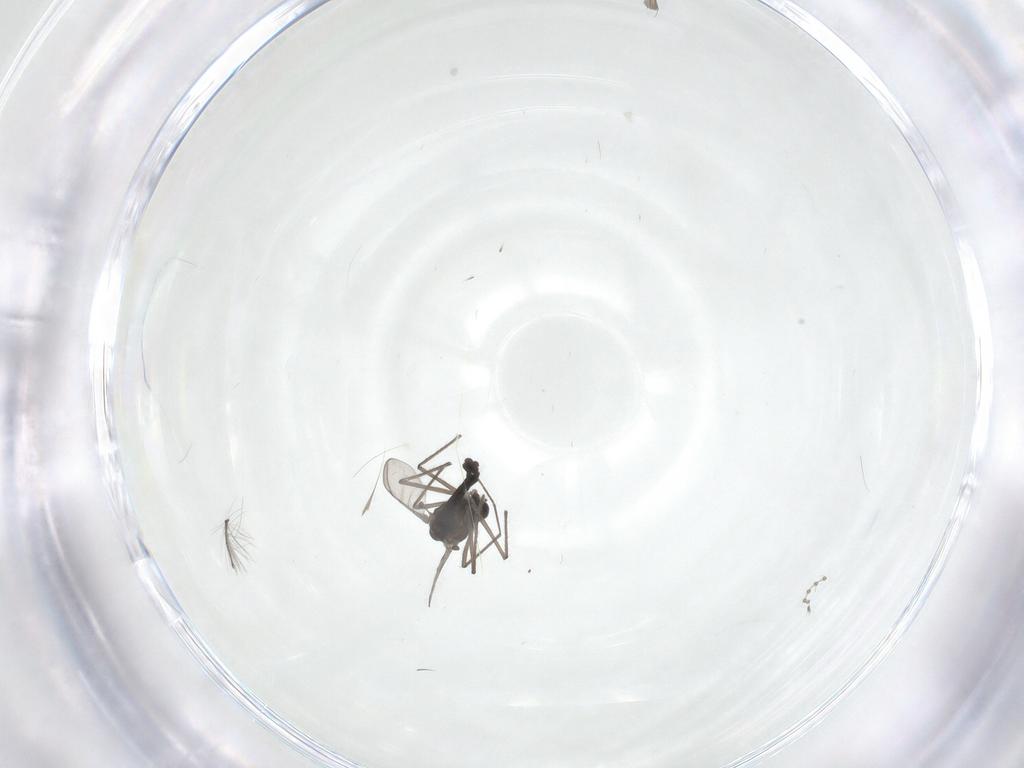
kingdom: Animalia
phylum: Arthropoda
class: Insecta
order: Diptera
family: Chironomidae
